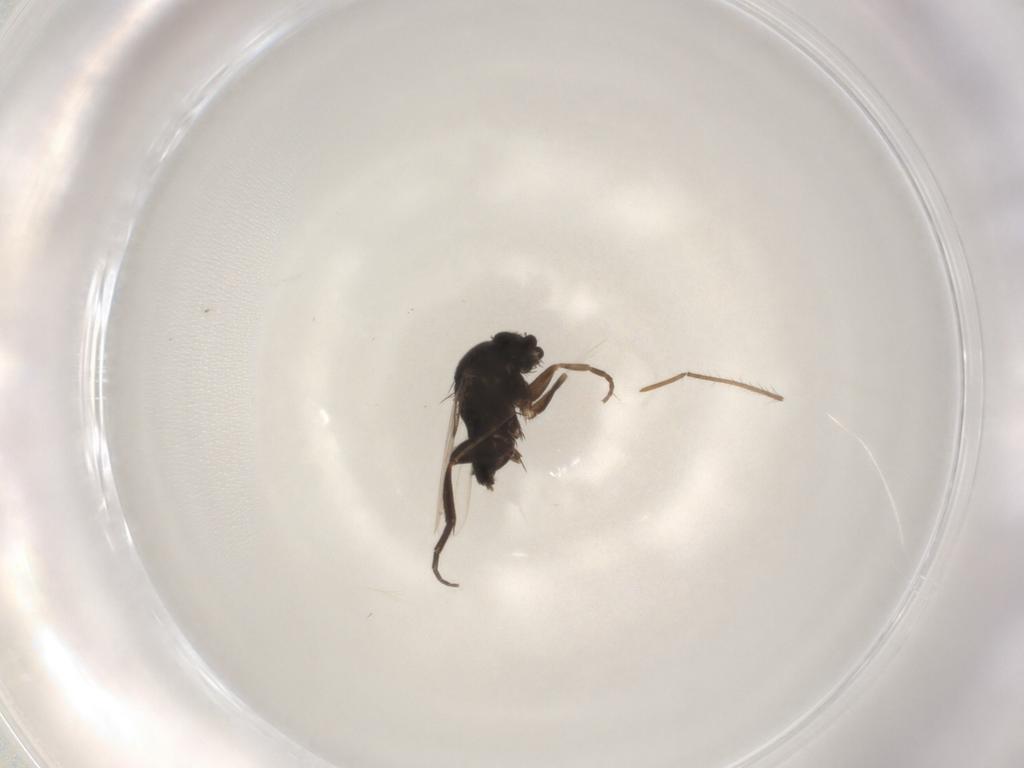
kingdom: Animalia
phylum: Arthropoda
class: Insecta
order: Diptera
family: Phoridae
